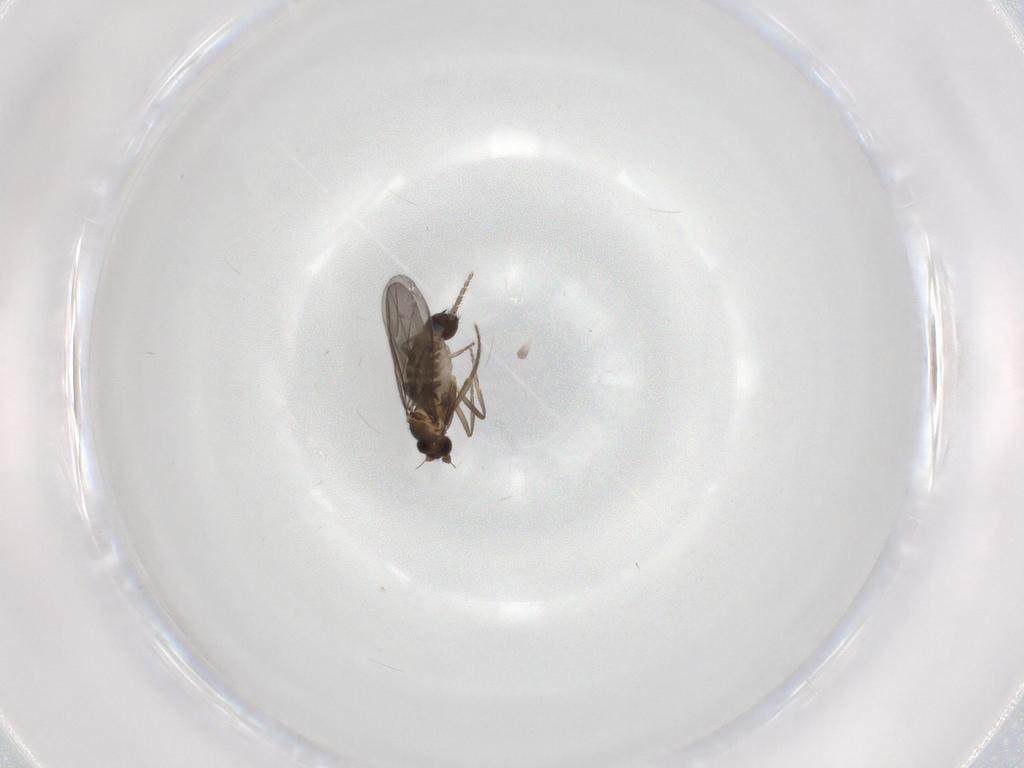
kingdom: Animalia
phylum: Arthropoda
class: Insecta
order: Diptera
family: Phoridae
